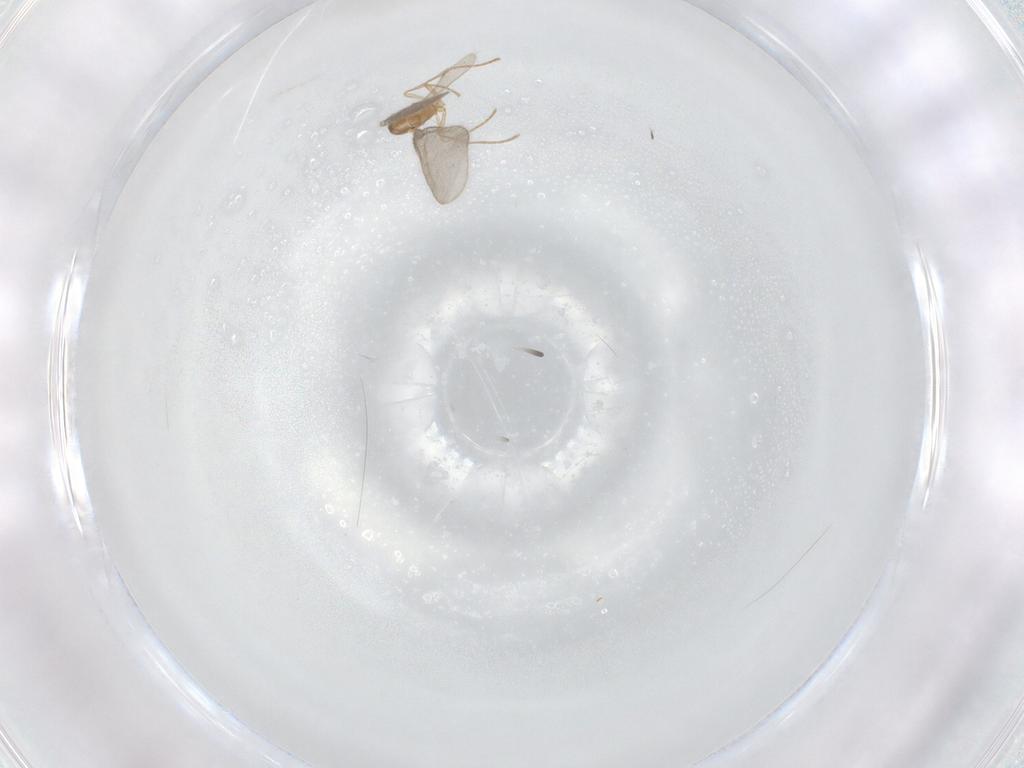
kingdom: Animalia
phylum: Arthropoda
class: Insecta
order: Hymenoptera
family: Formicidae
